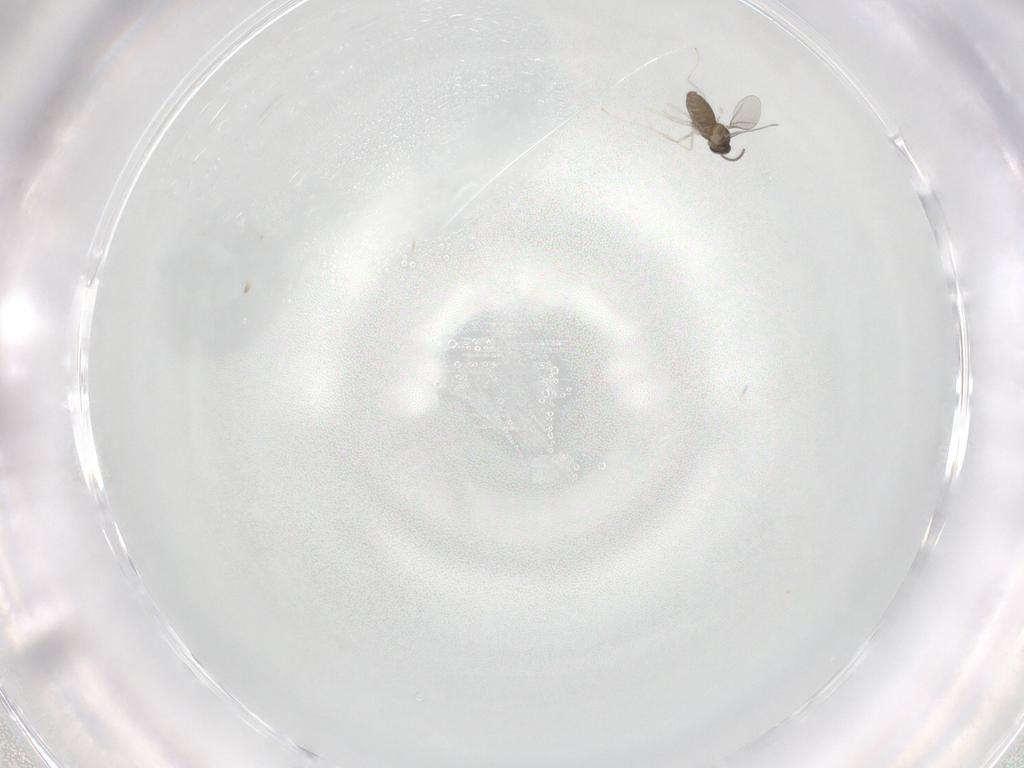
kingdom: Animalia
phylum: Arthropoda
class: Insecta
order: Diptera
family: Cecidomyiidae
